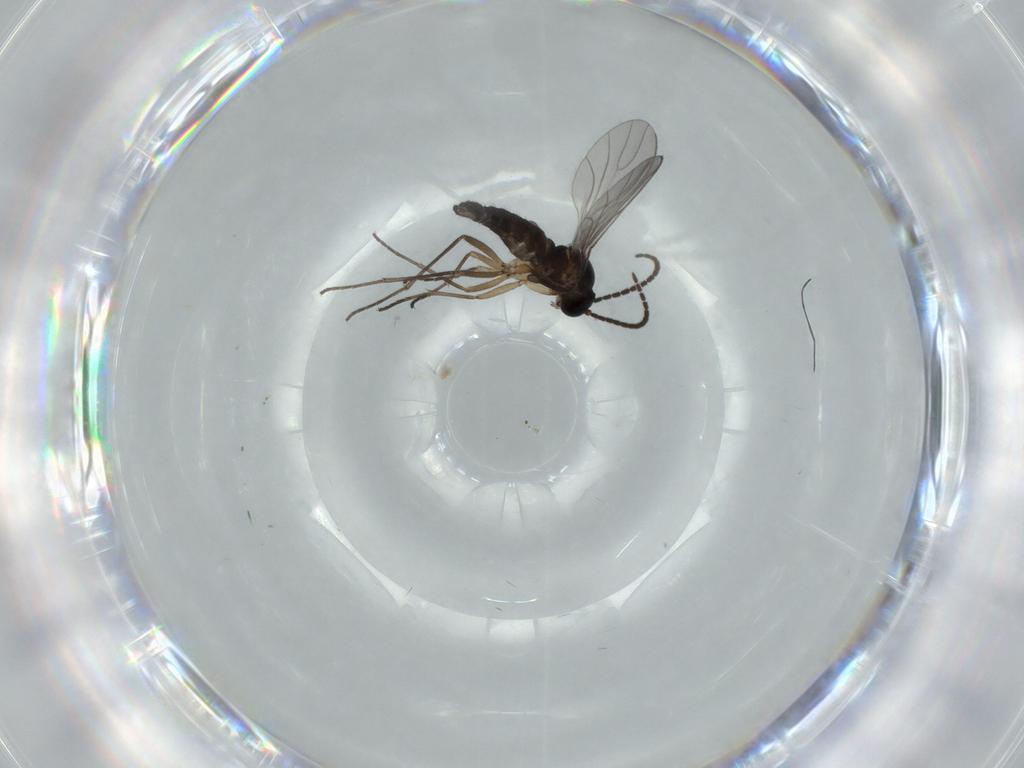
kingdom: Animalia
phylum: Arthropoda
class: Insecta
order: Diptera
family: Sciaridae
